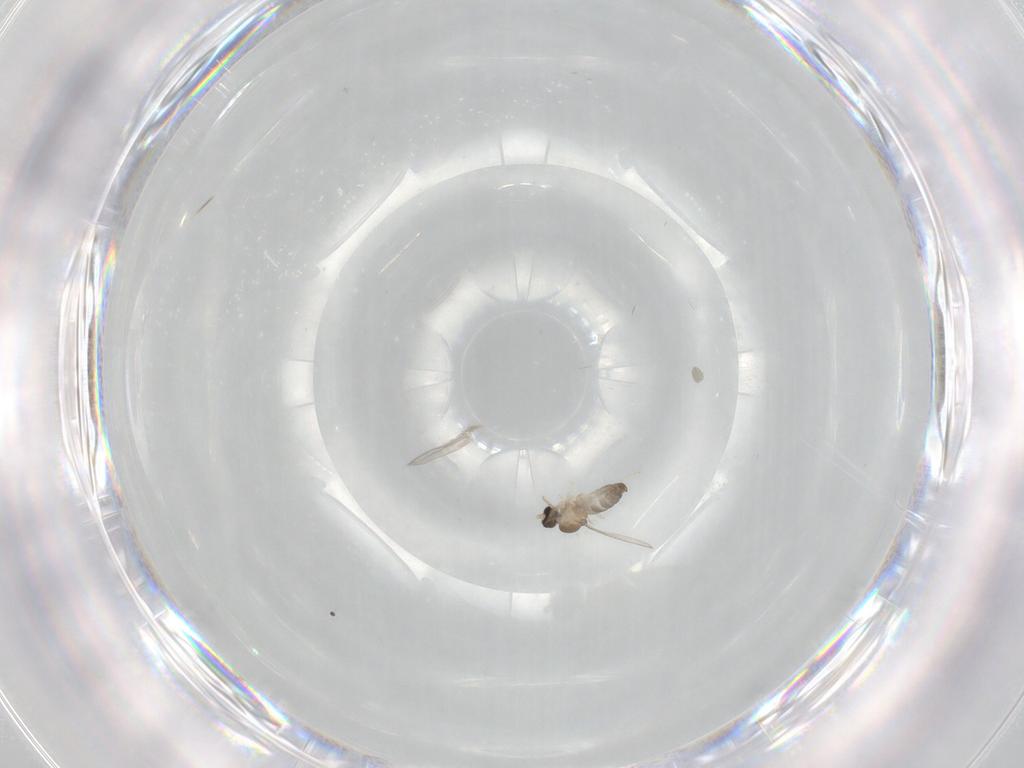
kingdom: Animalia
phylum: Arthropoda
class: Insecta
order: Diptera
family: Cecidomyiidae
